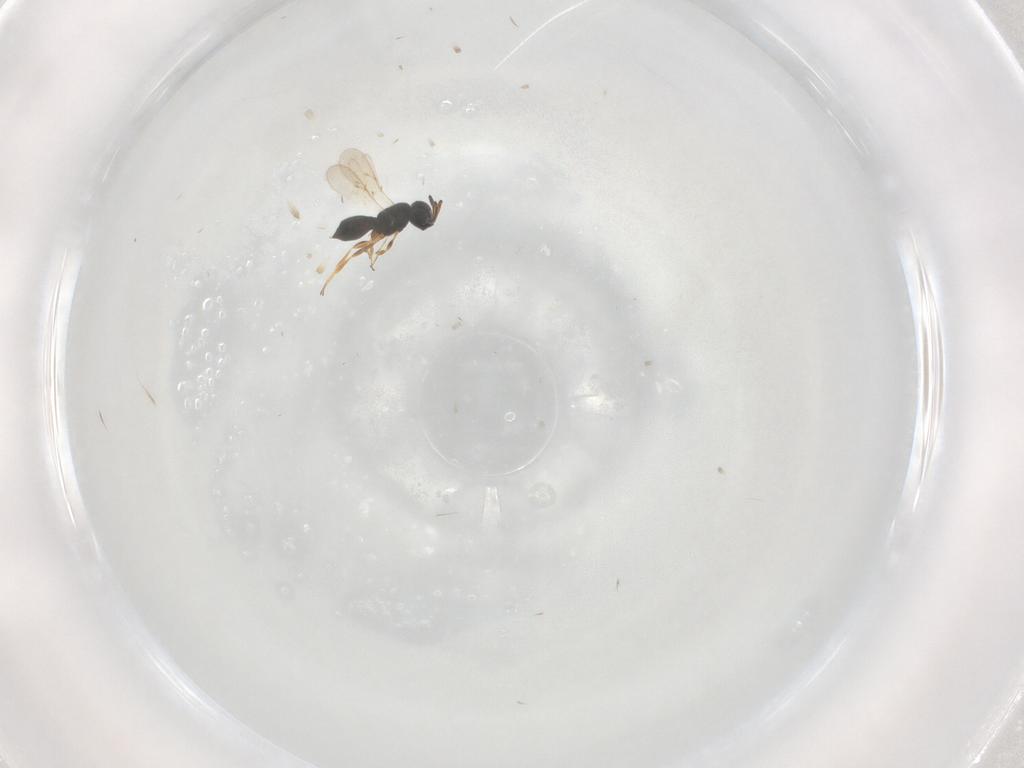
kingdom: Animalia
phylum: Arthropoda
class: Insecta
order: Hymenoptera
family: Scelionidae
